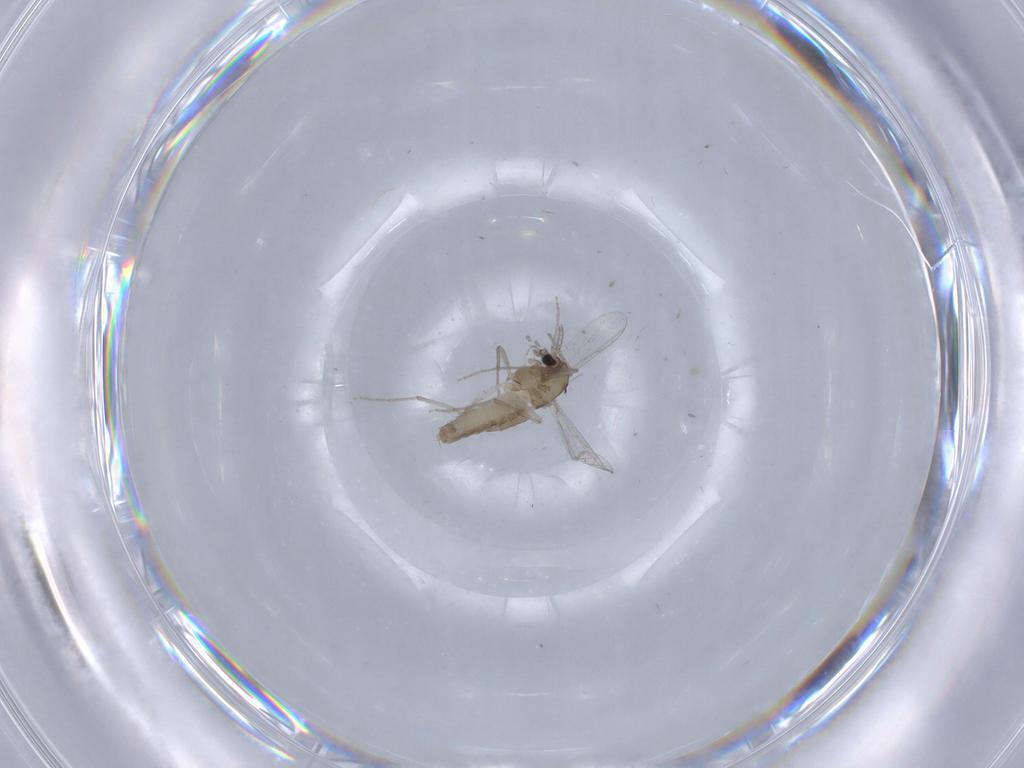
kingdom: Animalia
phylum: Arthropoda
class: Insecta
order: Diptera
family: Chironomidae
